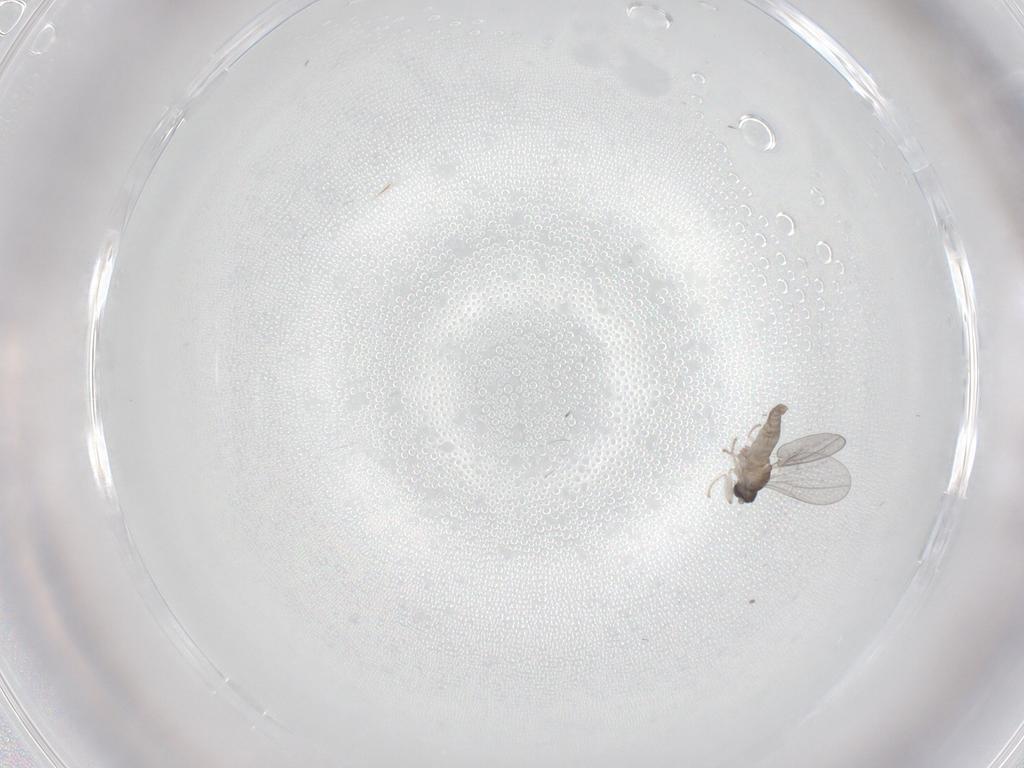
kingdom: Animalia
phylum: Arthropoda
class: Insecta
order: Diptera
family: Cecidomyiidae
